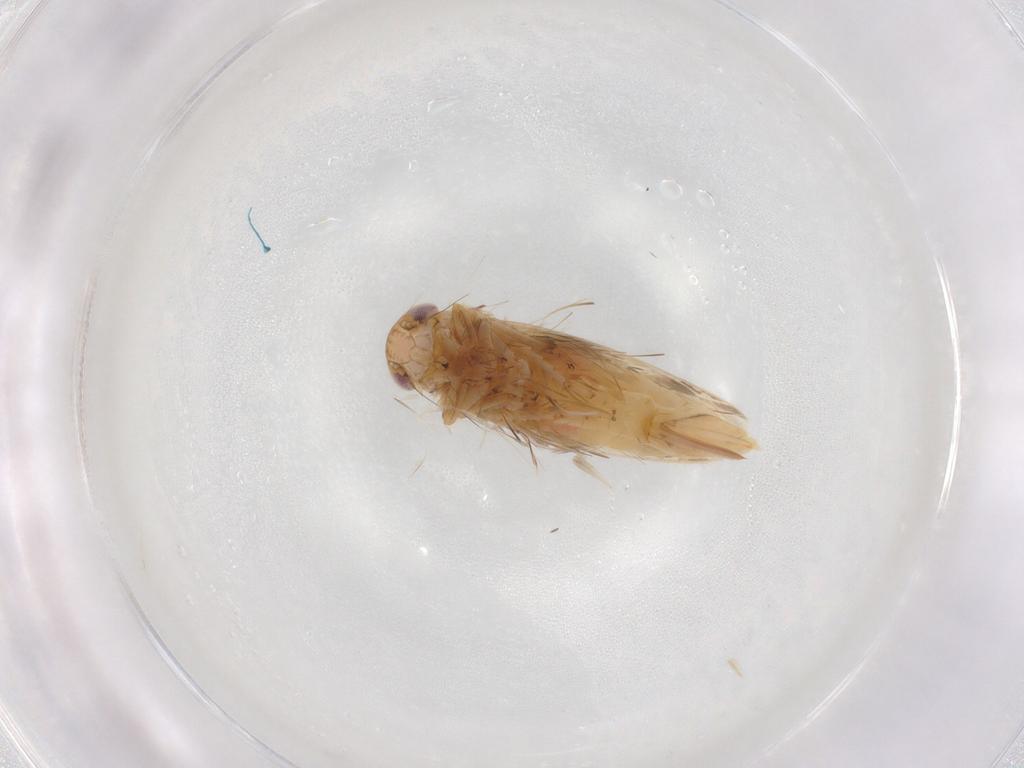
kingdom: Animalia
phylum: Arthropoda
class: Insecta
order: Hemiptera
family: Cicadellidae
